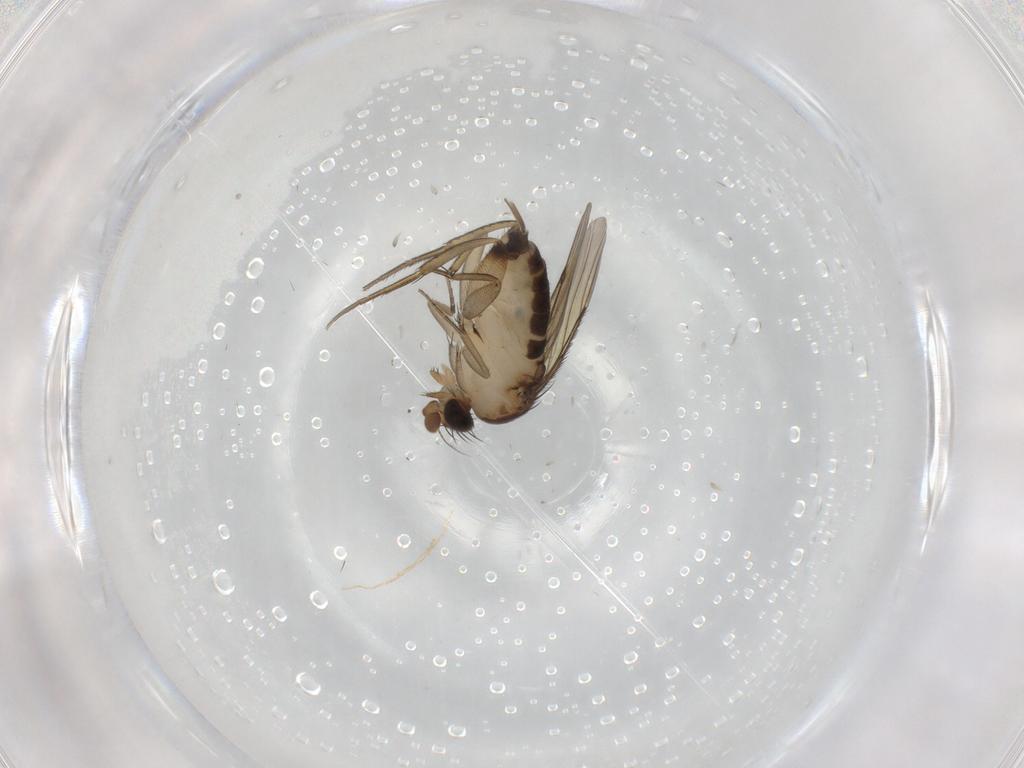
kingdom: Animalia
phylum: Arthropoda
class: Insecta
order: Diptera
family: Phoridae
